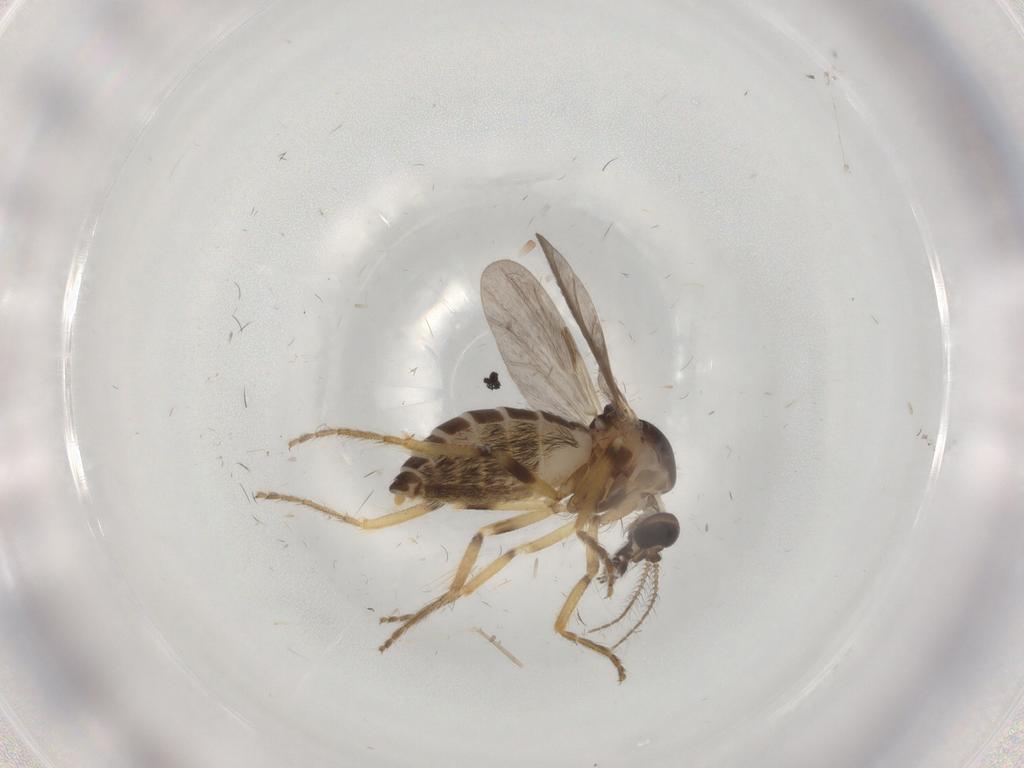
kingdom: Animalia
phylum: Arthropoda
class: Insecta
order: Diptera
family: Ceratopogonidae
